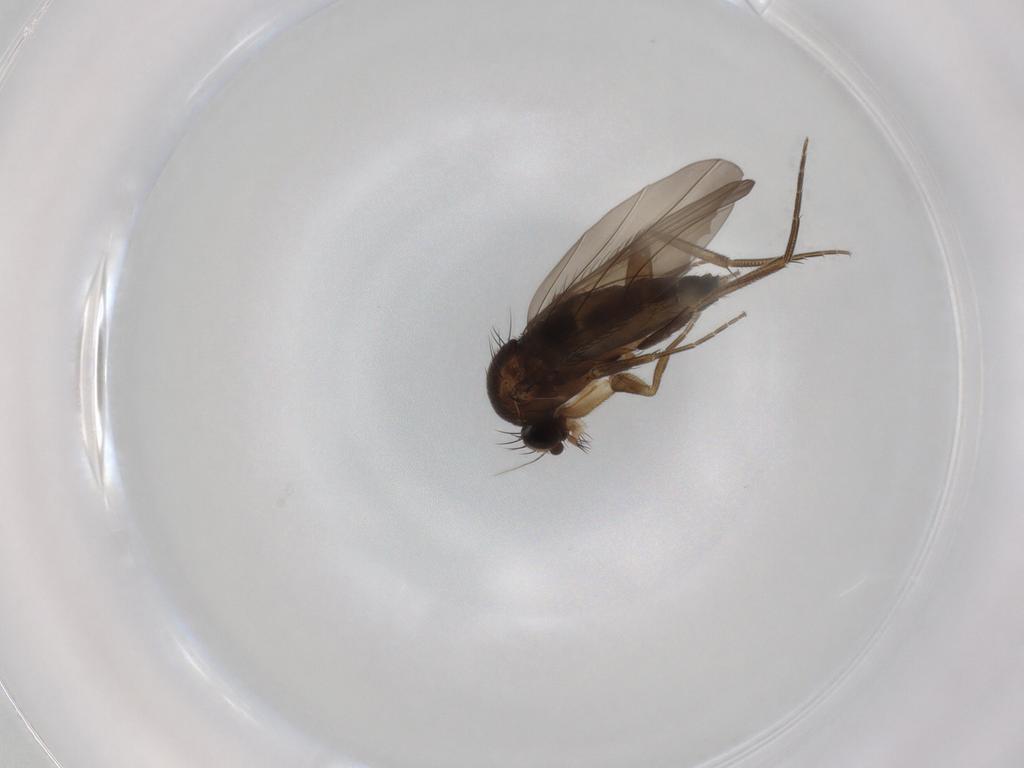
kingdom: Animalia
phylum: Arthropoda
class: Insecta
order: Diptera
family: Phoridae
